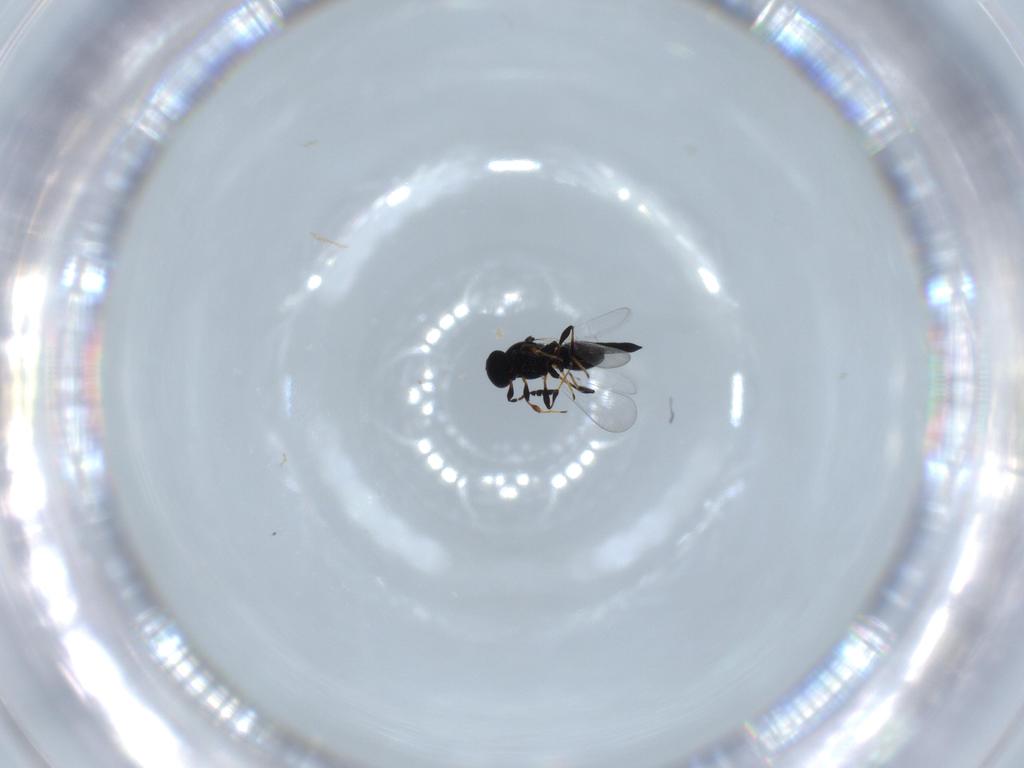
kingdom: Animalia
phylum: Arthropoda
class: Insecta
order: Hymenoptera
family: Platygastridae
